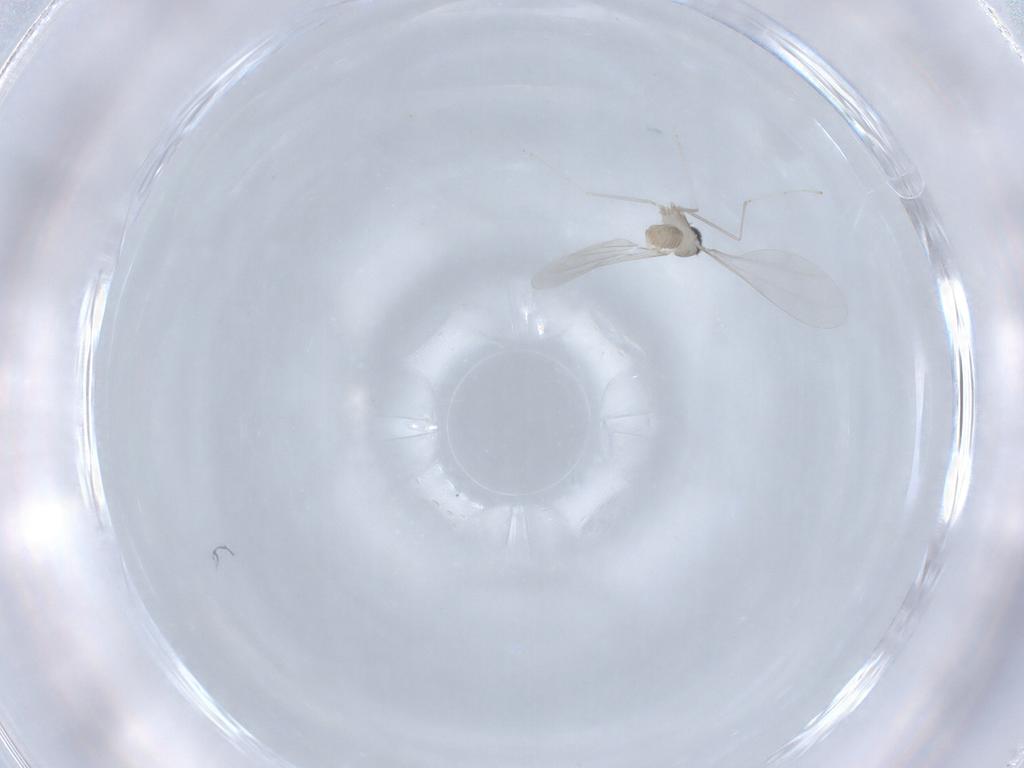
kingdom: Animalia
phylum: Arthropoda
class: Insecta
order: Diptera
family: Cecidomyiidae
